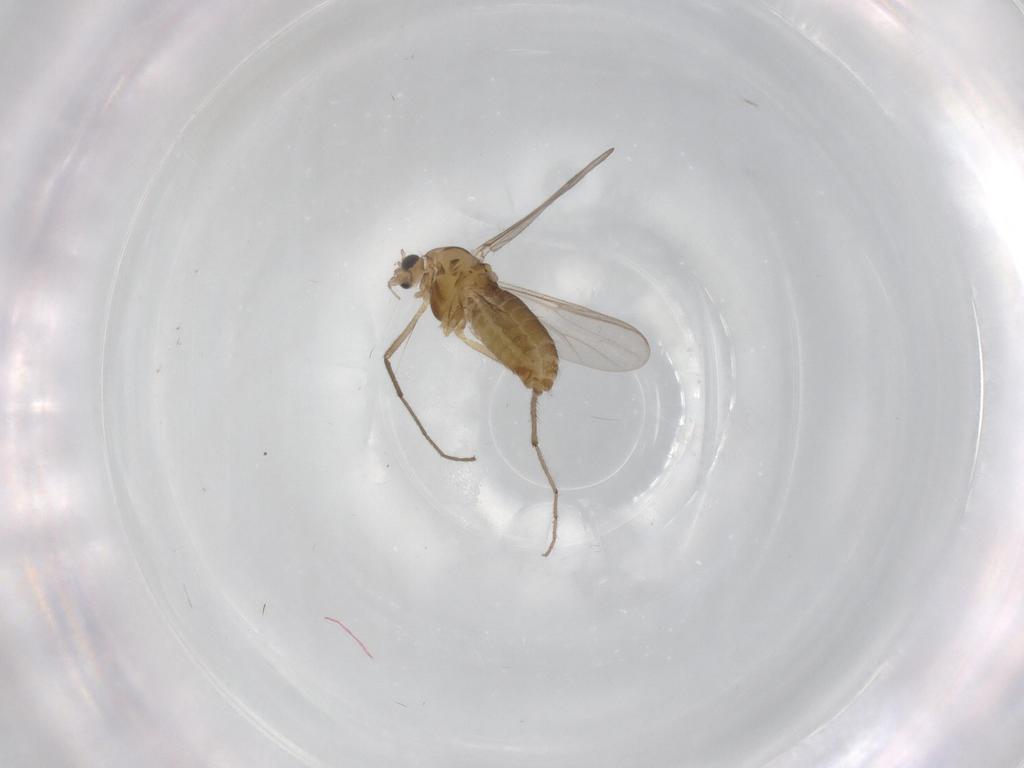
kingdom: Animalia
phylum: Arthropoda
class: Insecta
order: Diptera
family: Chironomidae
